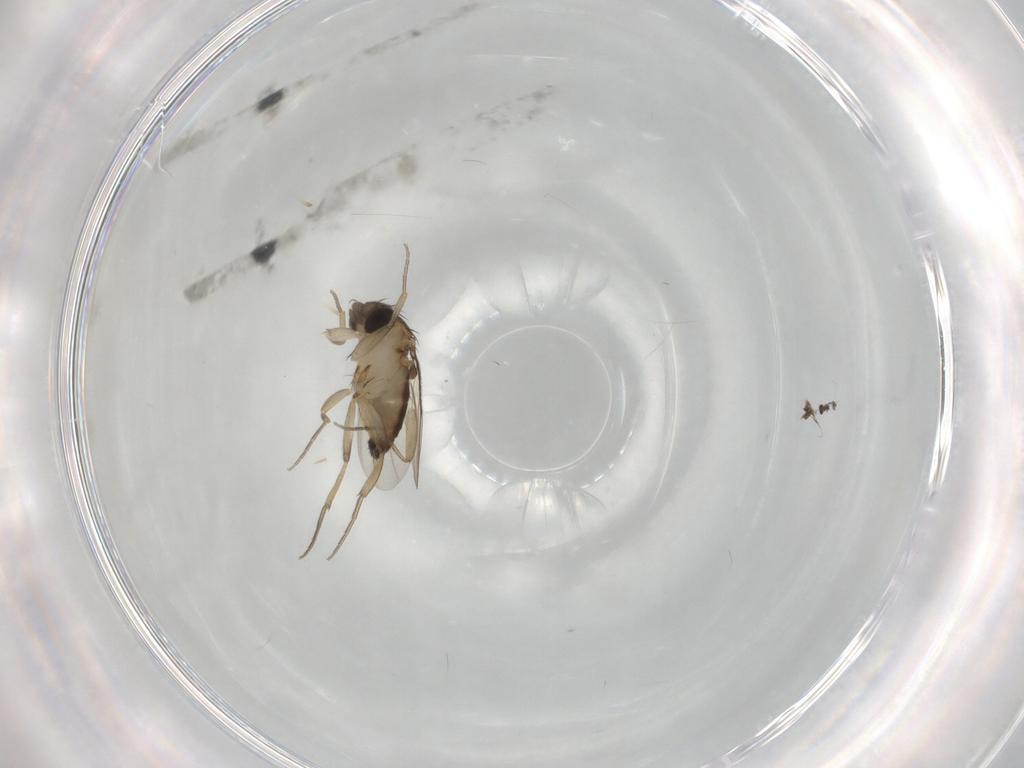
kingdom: Animalia
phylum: Arthropoda
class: Insecta
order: Diptera
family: Phoridae
